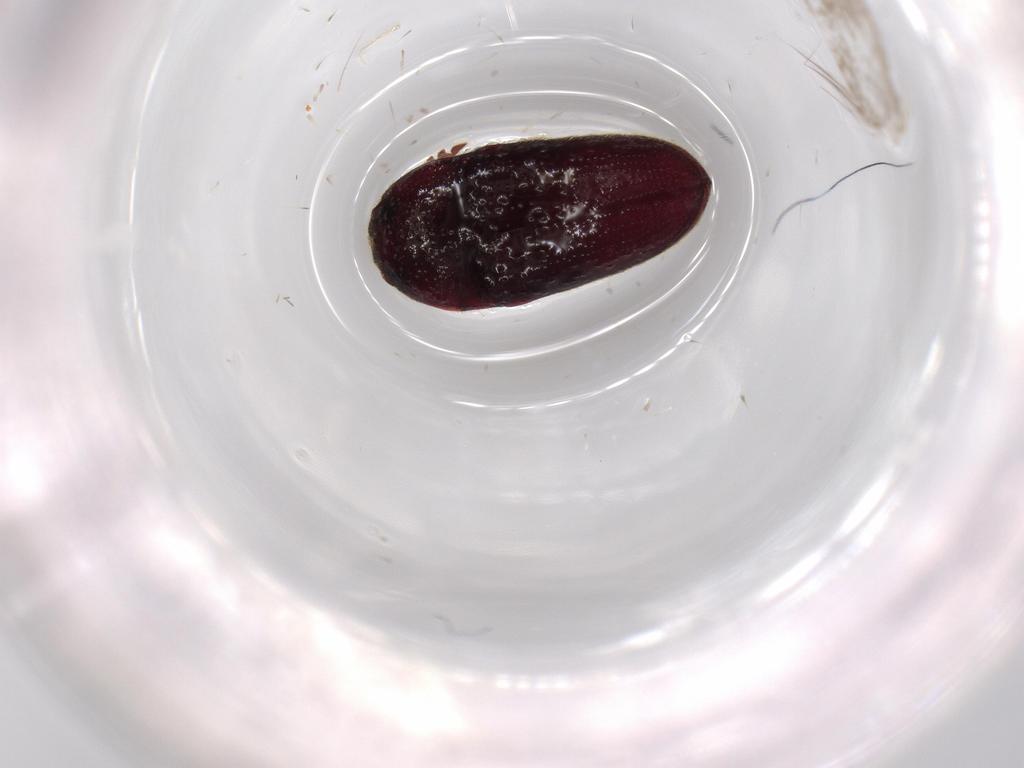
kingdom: Animalia
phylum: Arthropoda
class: Insecta
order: Coleoptera
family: Throscidae
